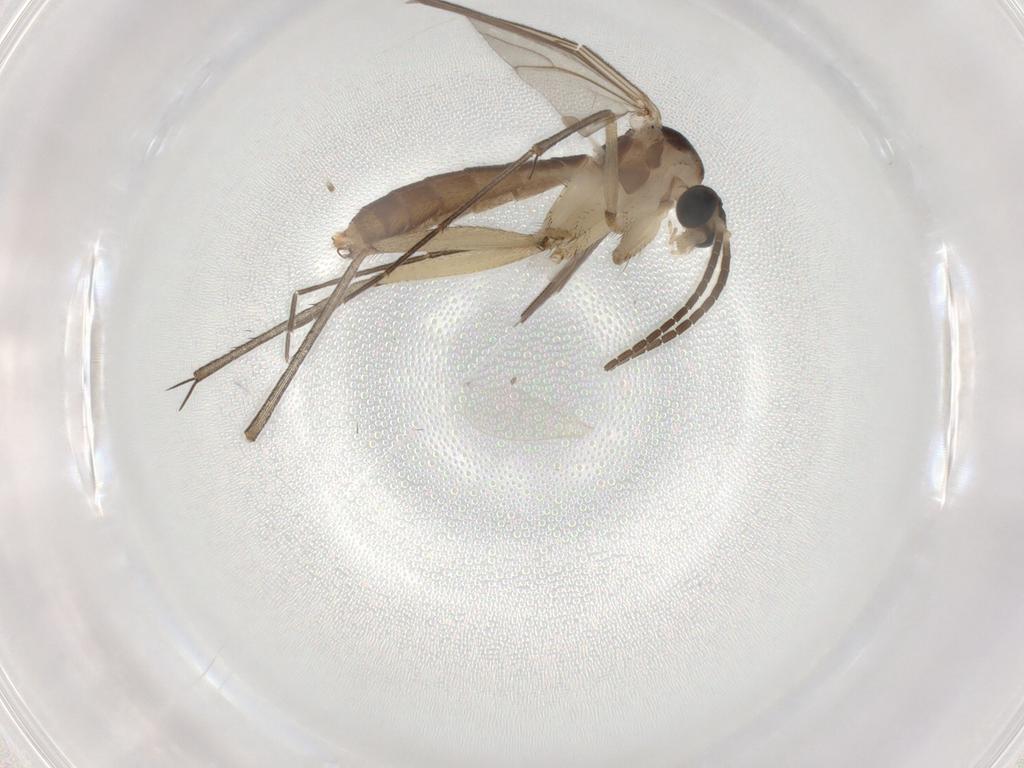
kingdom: Animalia
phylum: Arthropoda
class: Insecta
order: Diptera
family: Mycetophilidae
